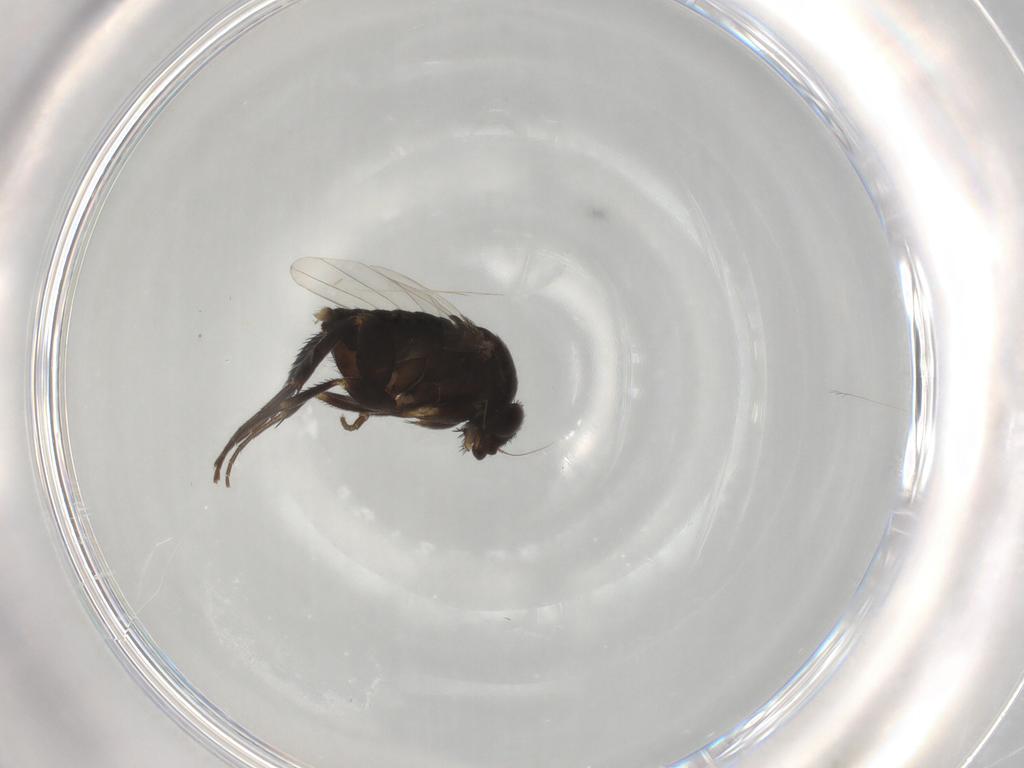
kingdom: Animalia
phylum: Arthropoda
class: Insecta
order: Diptera
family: Phoridae
